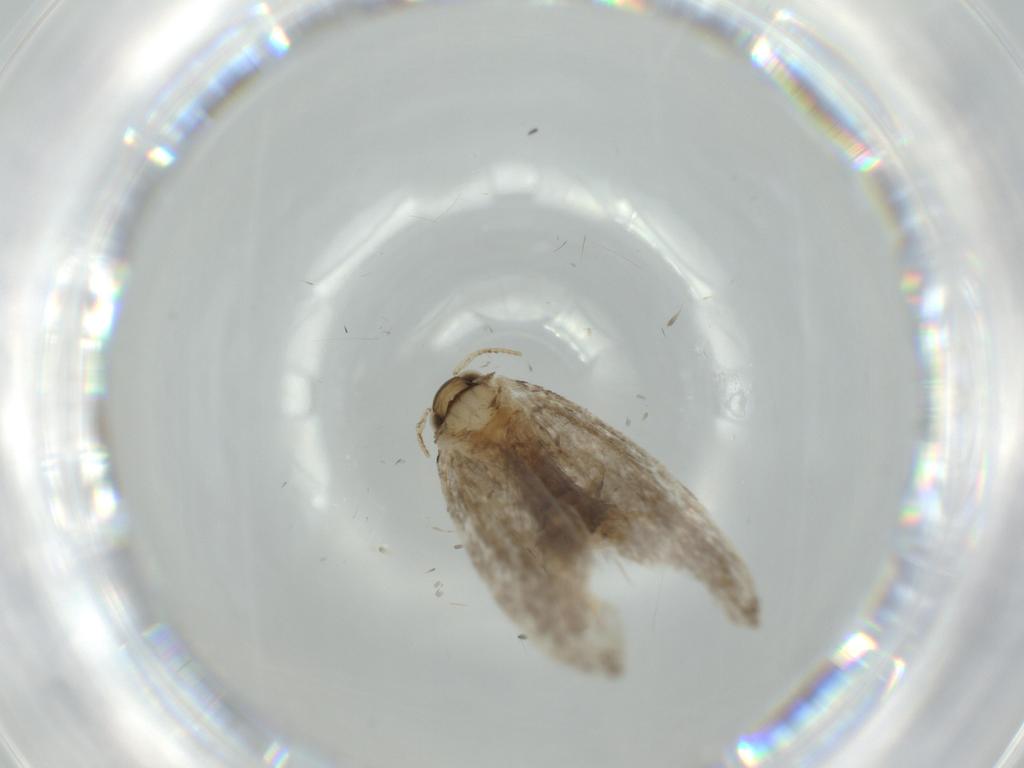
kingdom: Animalia
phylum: Arthropoda
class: Insecta
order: Lepidoptera
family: Tineidae
